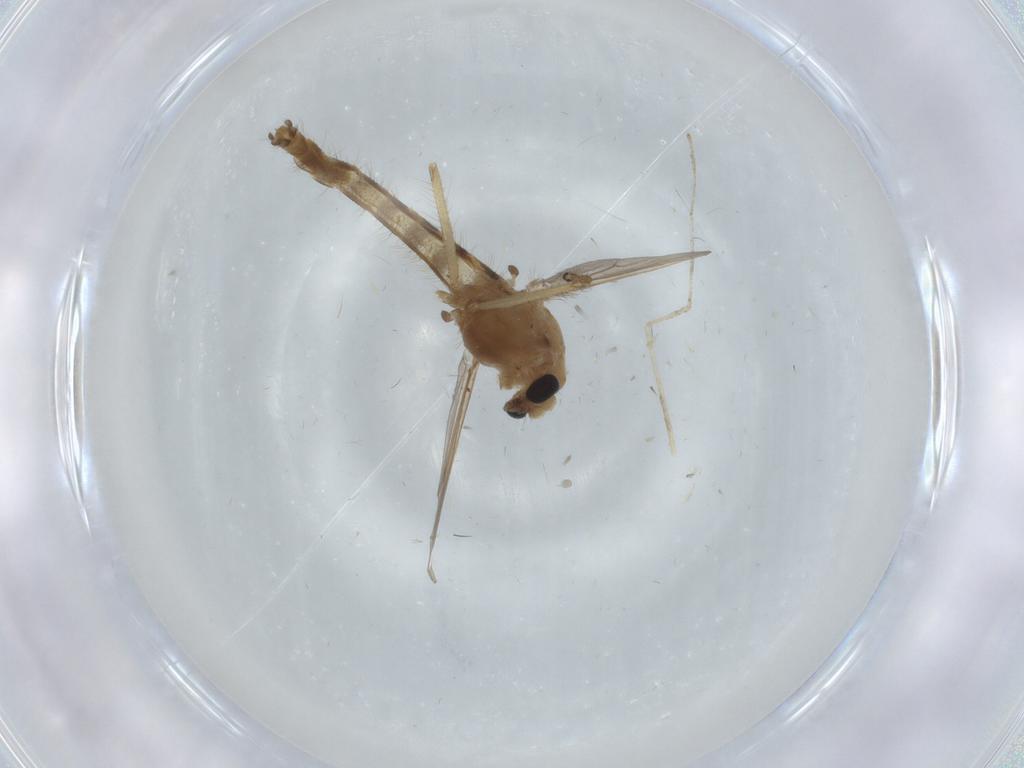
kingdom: Animalia
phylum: Arthropoda
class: Insecta
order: Diptera
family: Chironomidae
